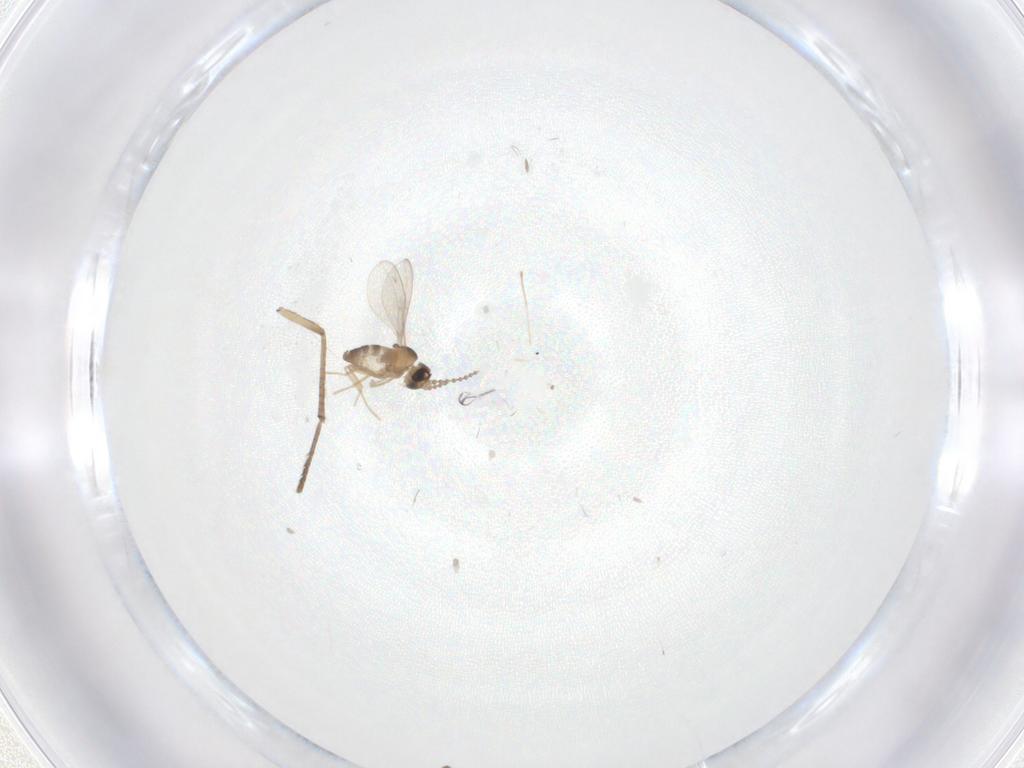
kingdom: Animalia
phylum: Arthropoda
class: Insecta
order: Diptera
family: Cecidomyiidae
